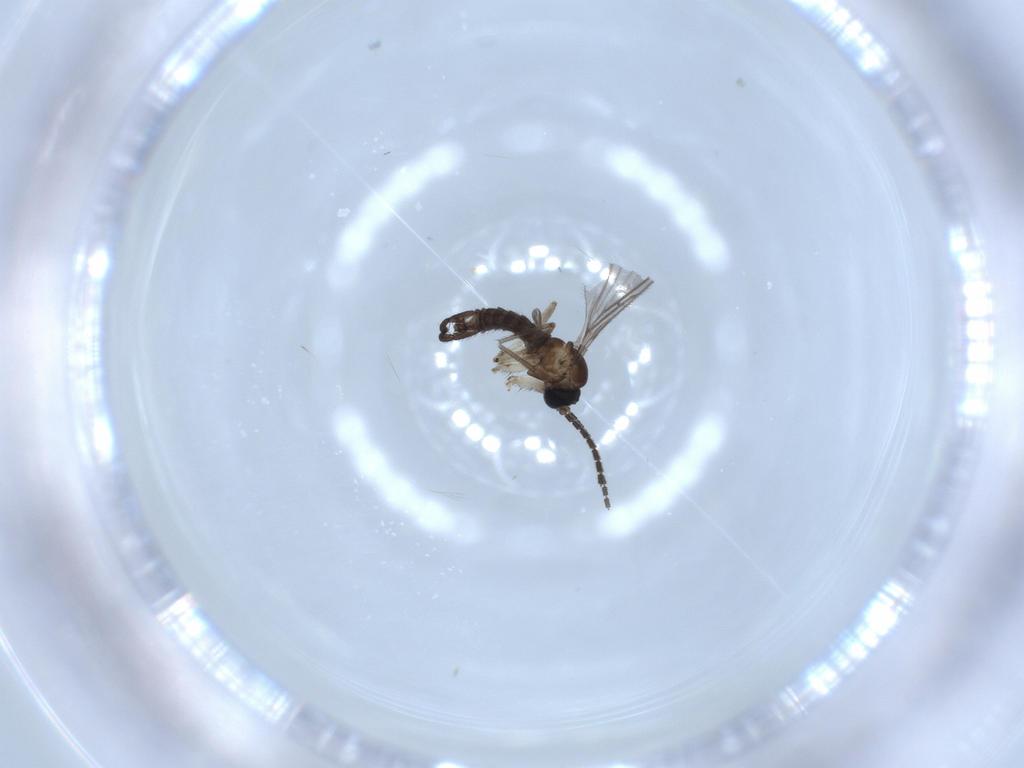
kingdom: Animalia
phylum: Arthropoda
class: Insecta
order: Diptera
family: Sciaridae
